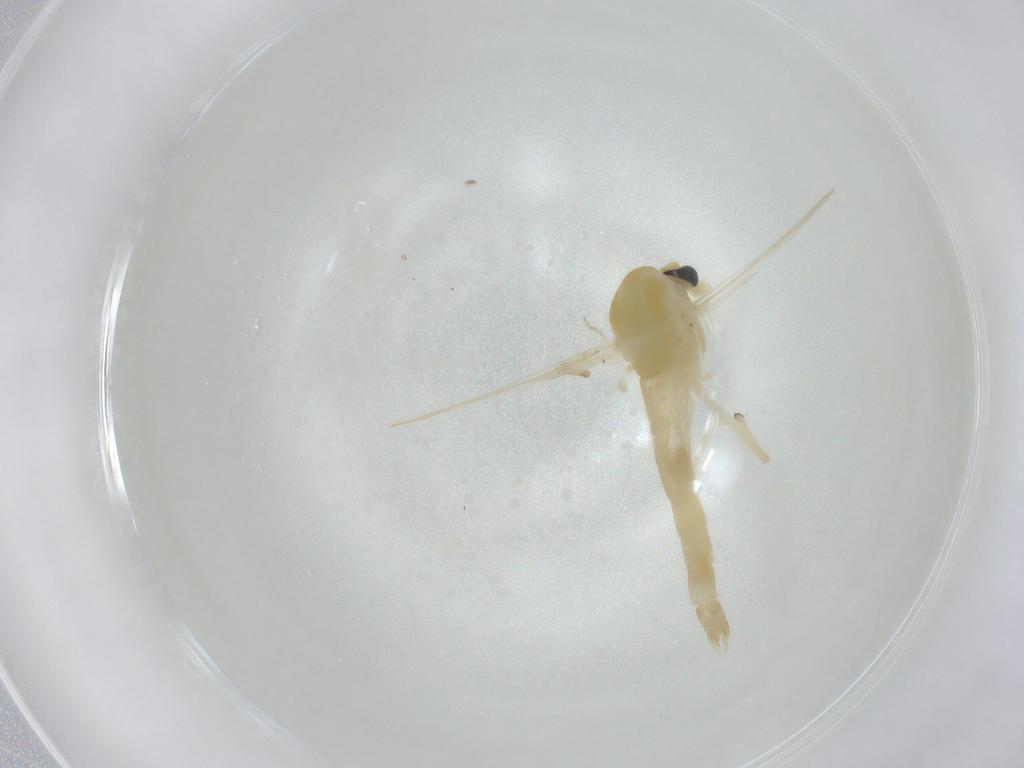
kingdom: Animalia
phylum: Arthropoda
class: Insecta
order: Diptera
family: Chironomidae
